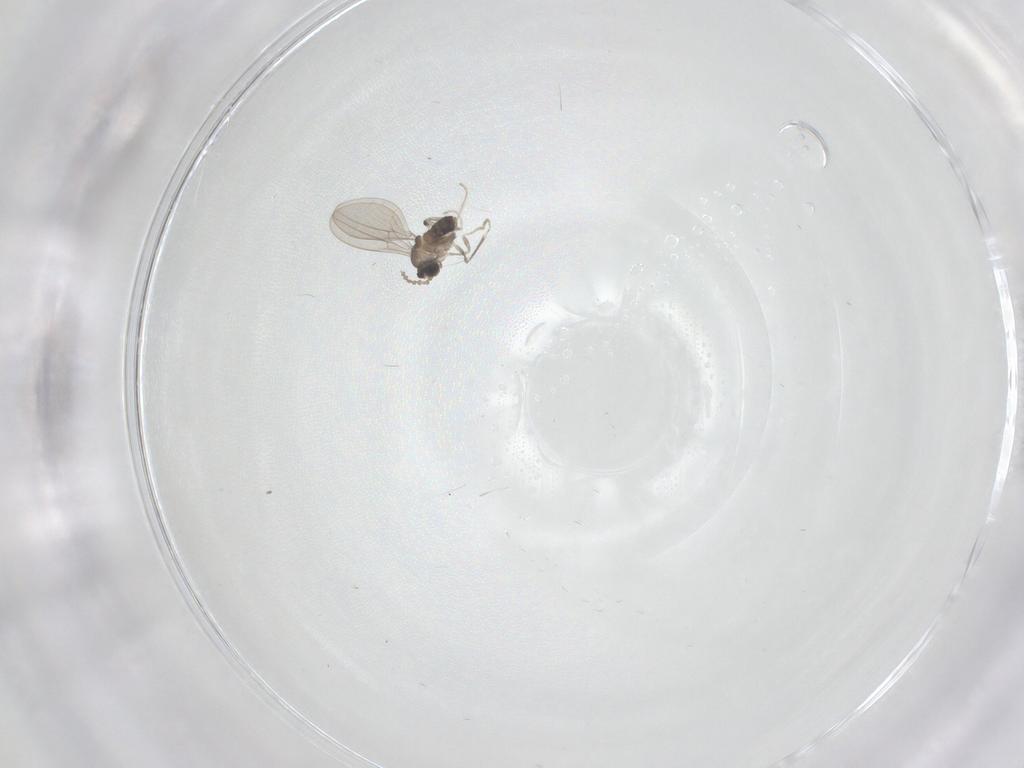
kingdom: Animalia
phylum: Arthropoda
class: Insecta
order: Diptera
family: Cecidomyiidae
